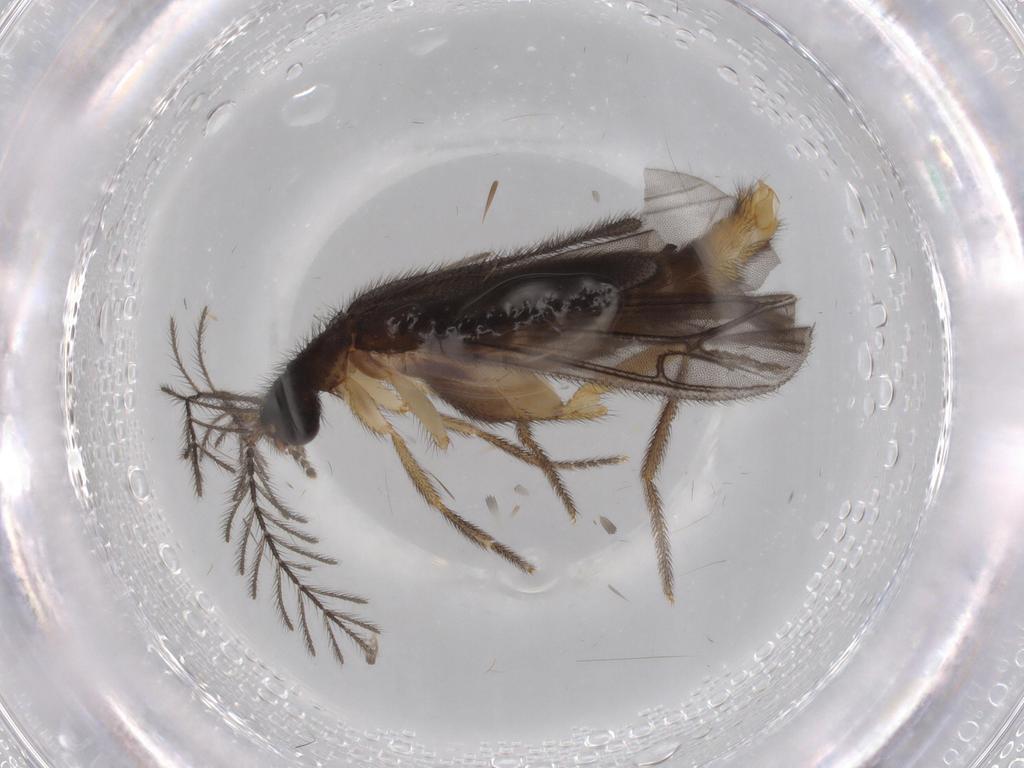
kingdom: Animalia
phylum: Arthropoda
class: Insecta
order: Coleoptera
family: Phengodidae
